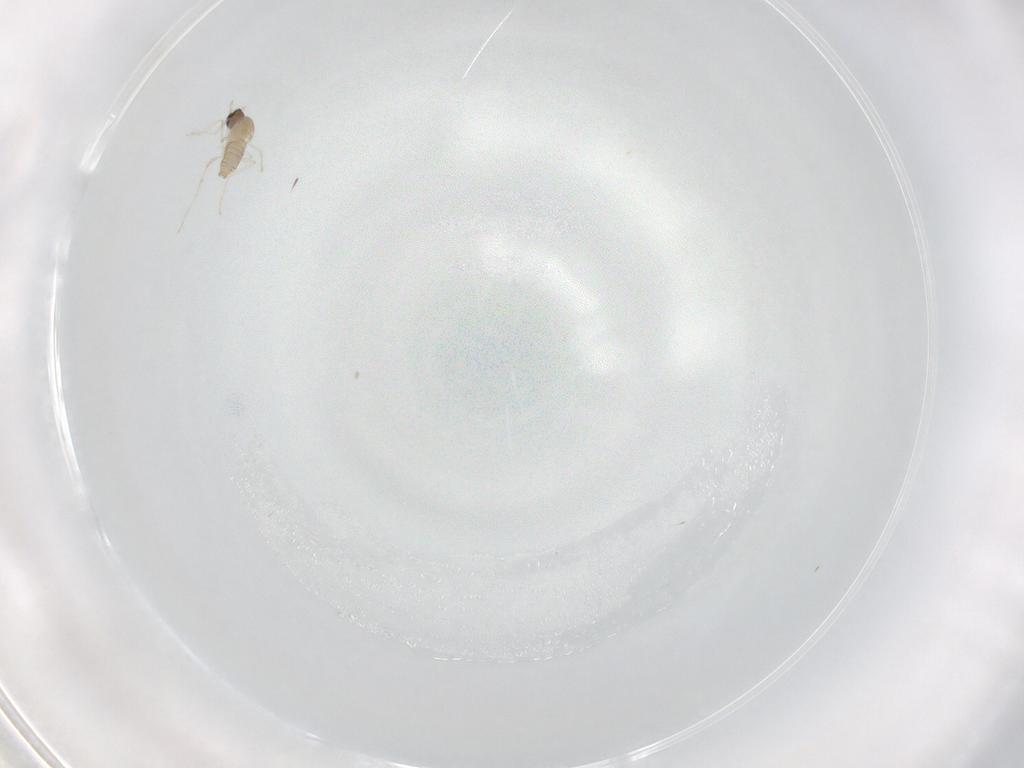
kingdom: Animalia
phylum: Arthropoda
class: Insecta
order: Diptera
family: Cecidomyiidae
